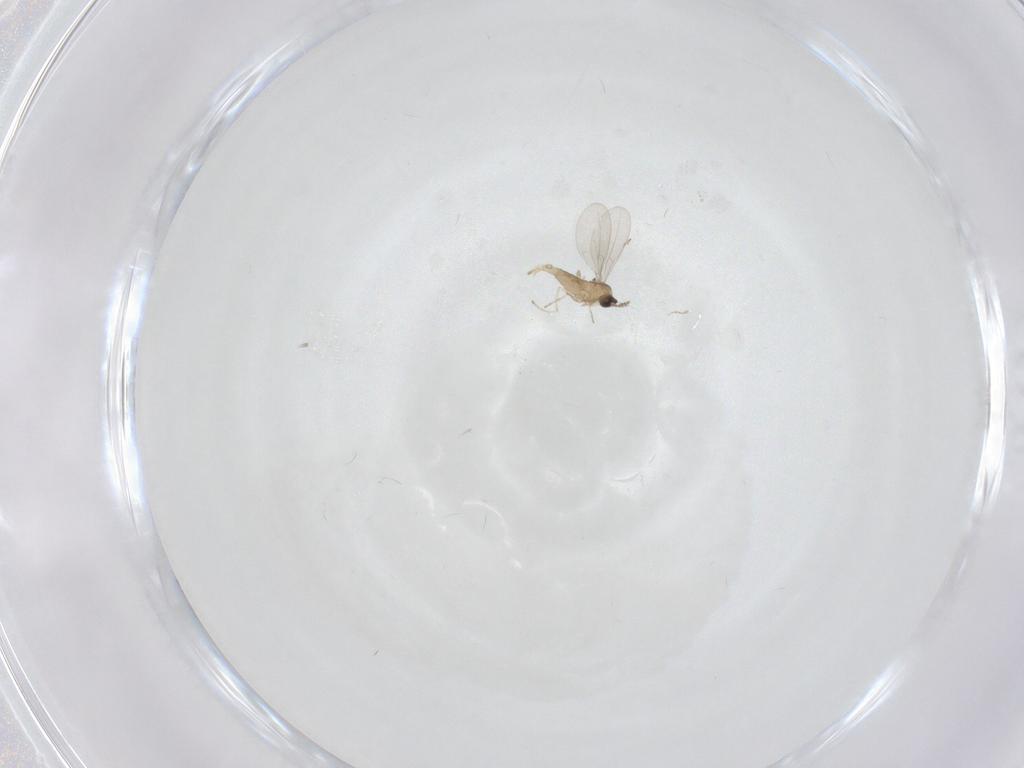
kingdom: Animalia
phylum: Arthropoda
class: Insecta
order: Diptera
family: Cecidomyiidae
